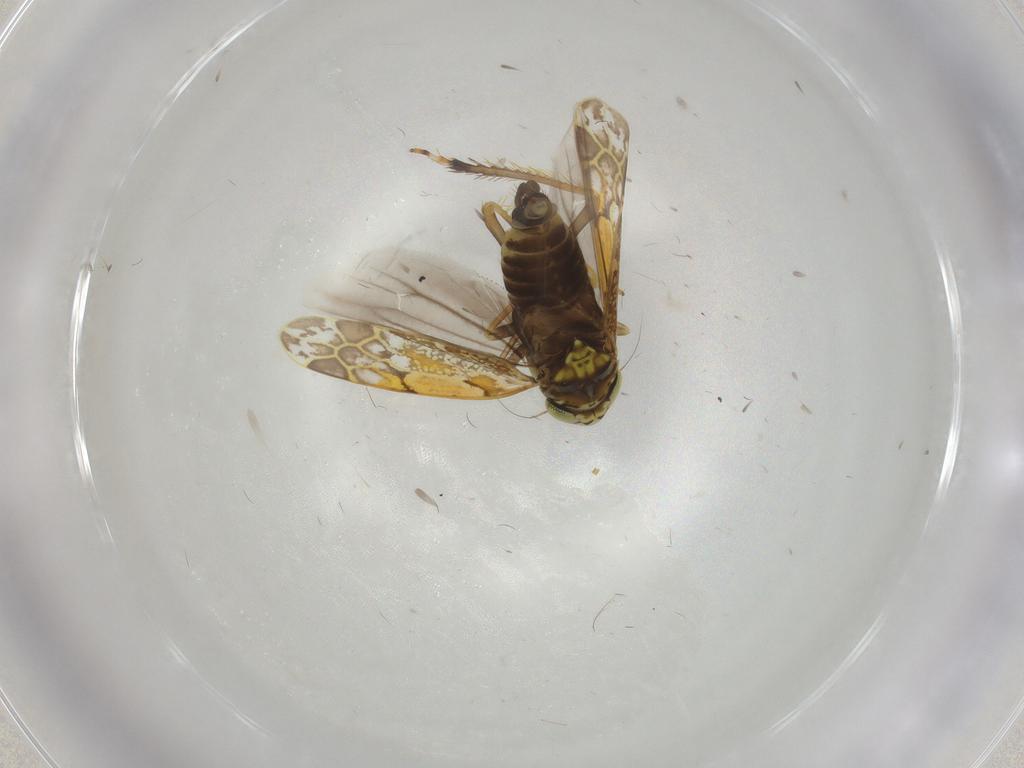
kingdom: Animalia
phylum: Arthropoda
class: Insecta
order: Hemiptera
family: Cicadellidae
